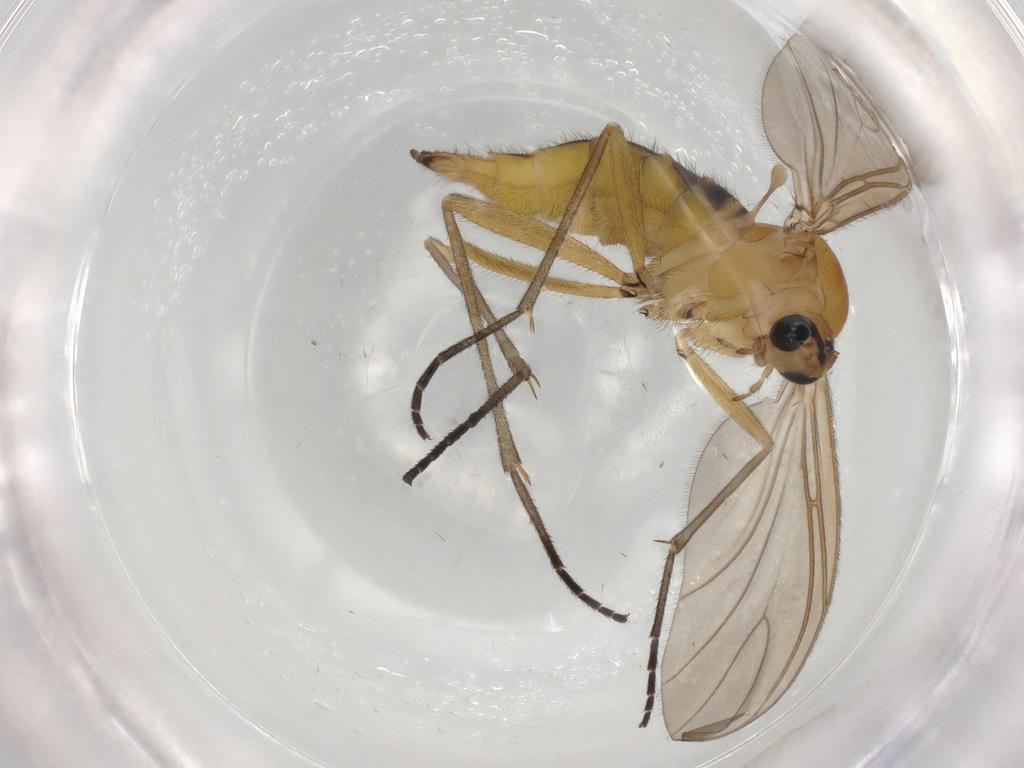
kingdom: Animalia
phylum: Arthropoda
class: Insecta
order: Diptera
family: Sciaridae
